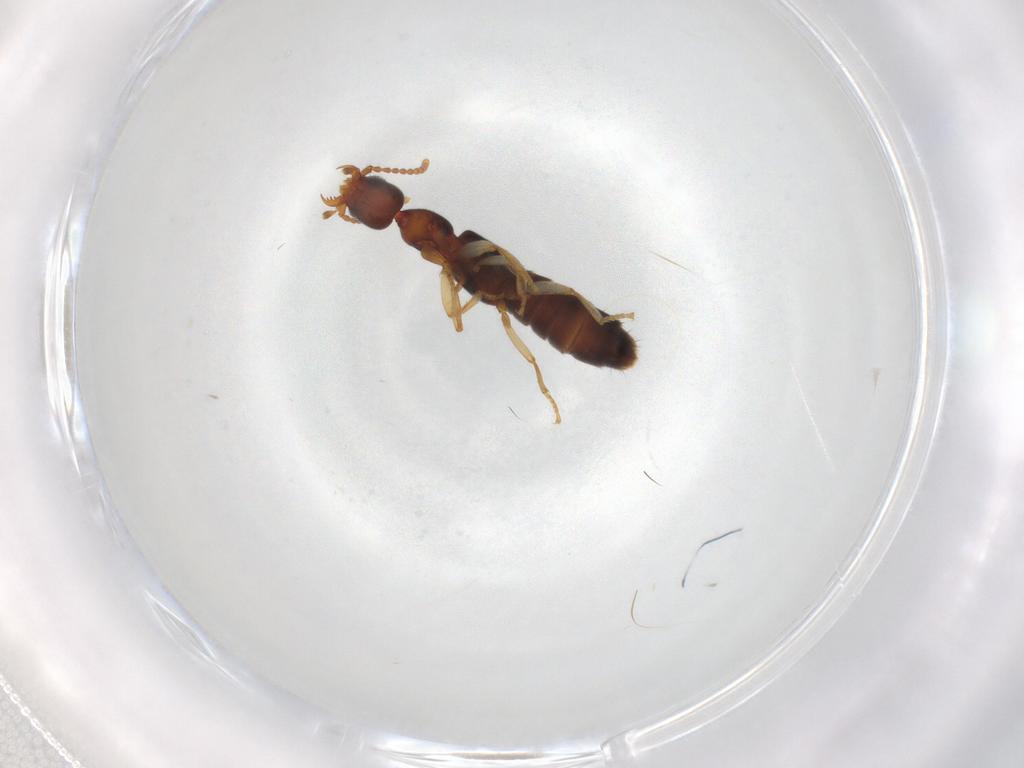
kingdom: Animalia
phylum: Arthropoda
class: Insecta
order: Coleoptera
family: Staphylinidae
